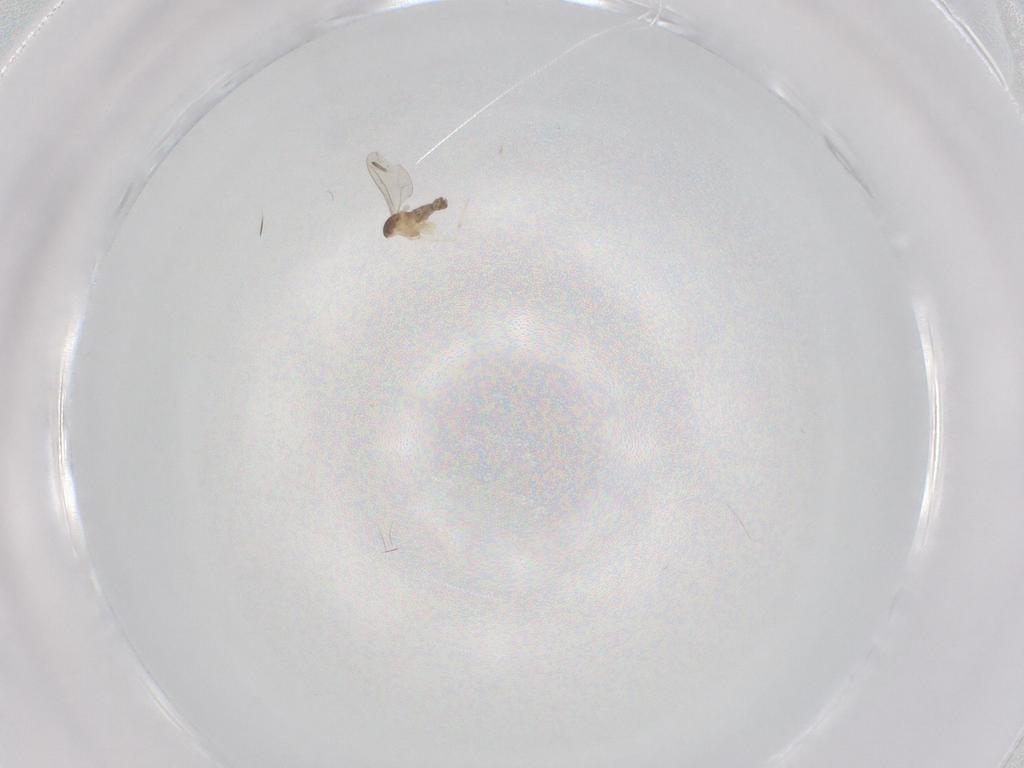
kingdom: Animalia
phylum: Arthropoda
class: Insecta
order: Diptera
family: Cecidomyiidae
